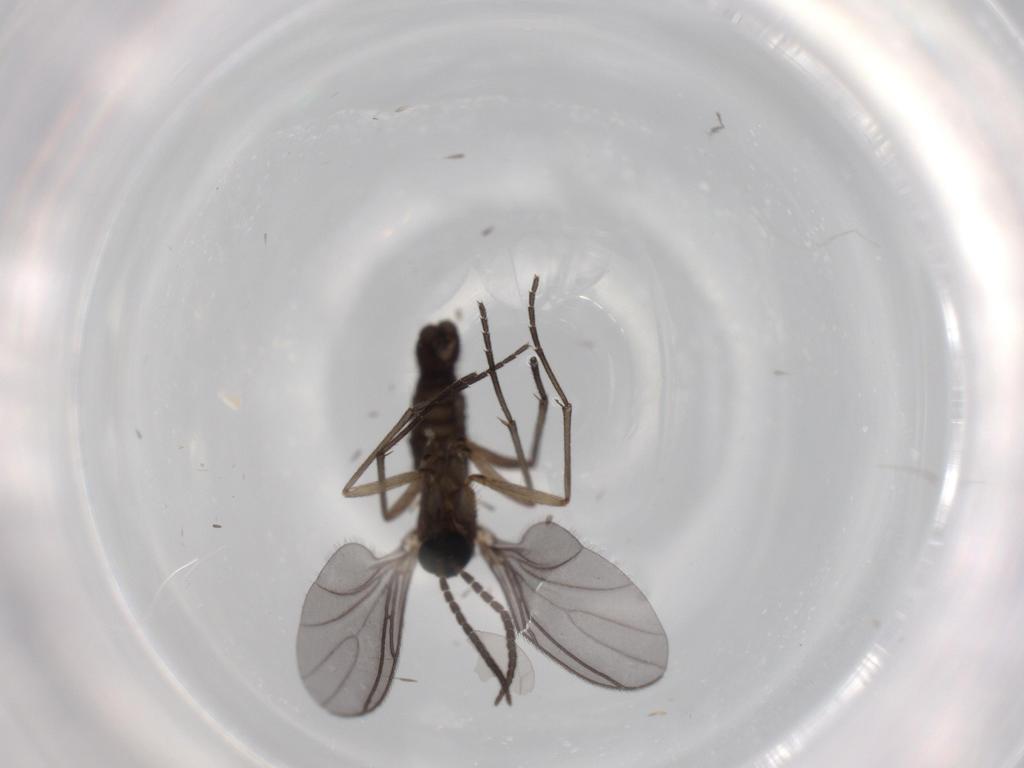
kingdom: Animalia
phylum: Arthropoda
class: Insecta
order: Diptera
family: Sciaridae
